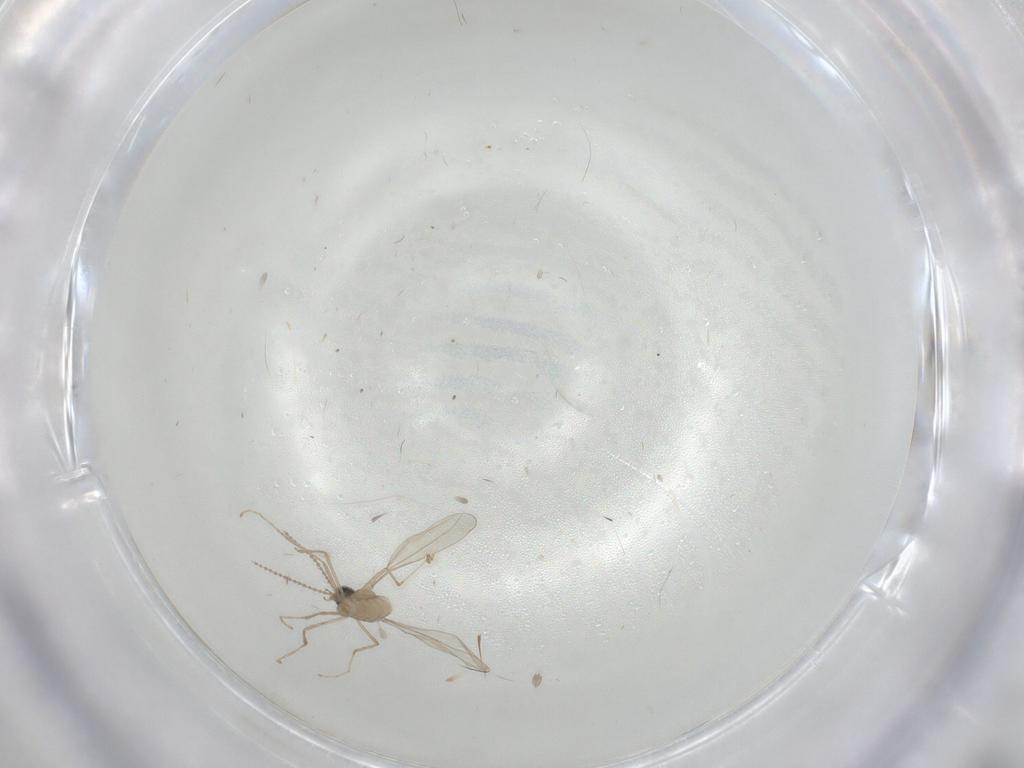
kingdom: Animalia
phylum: Arthropoda
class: Insecta
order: Diptera
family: Cecidomyiidae
